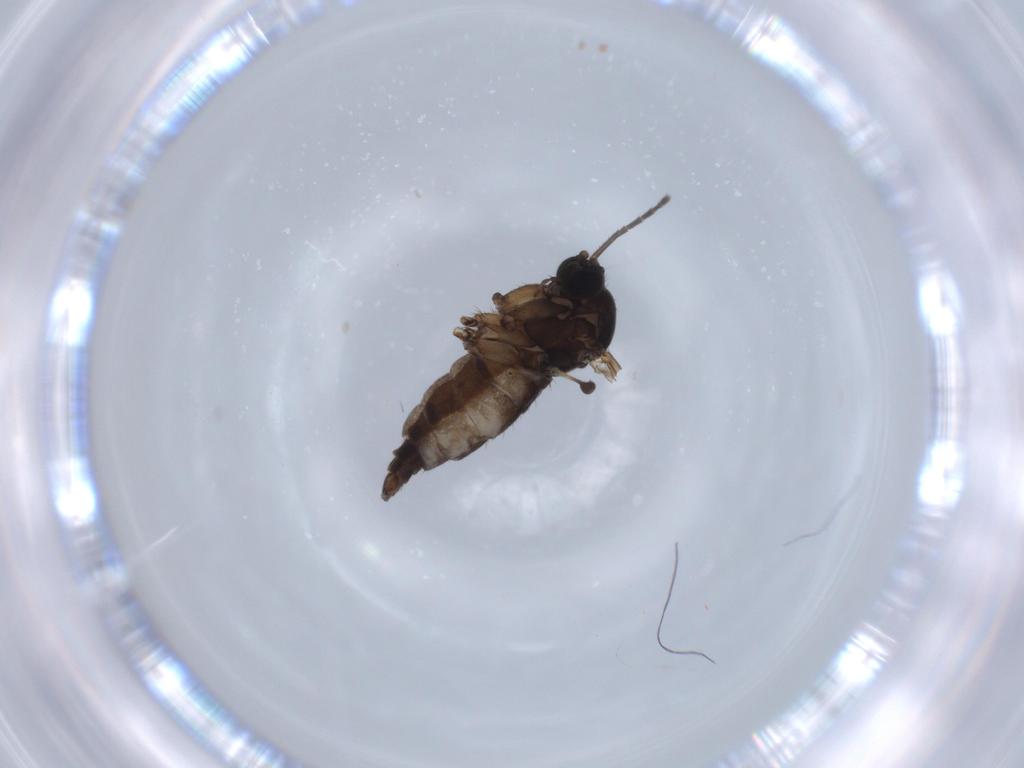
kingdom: Animalia
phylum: Arthropoda
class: Insecta
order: Diptera
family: Sciaridae
